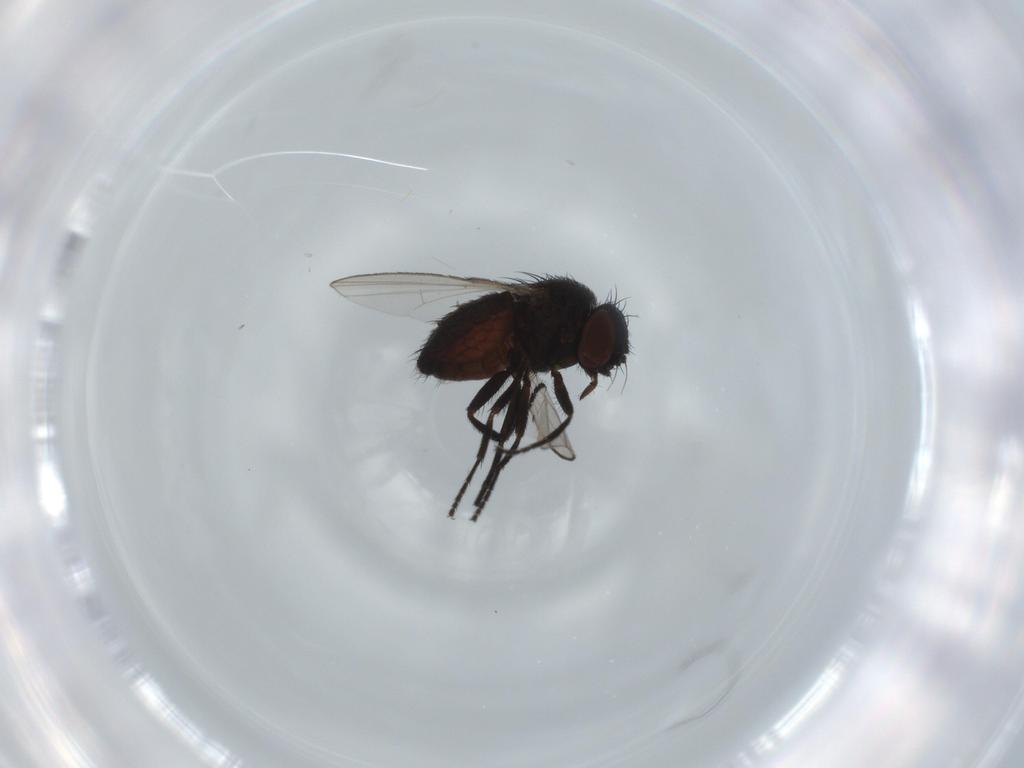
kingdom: Animalia
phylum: Arthropoda
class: Insecta
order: Diptera
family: Milichiidae
